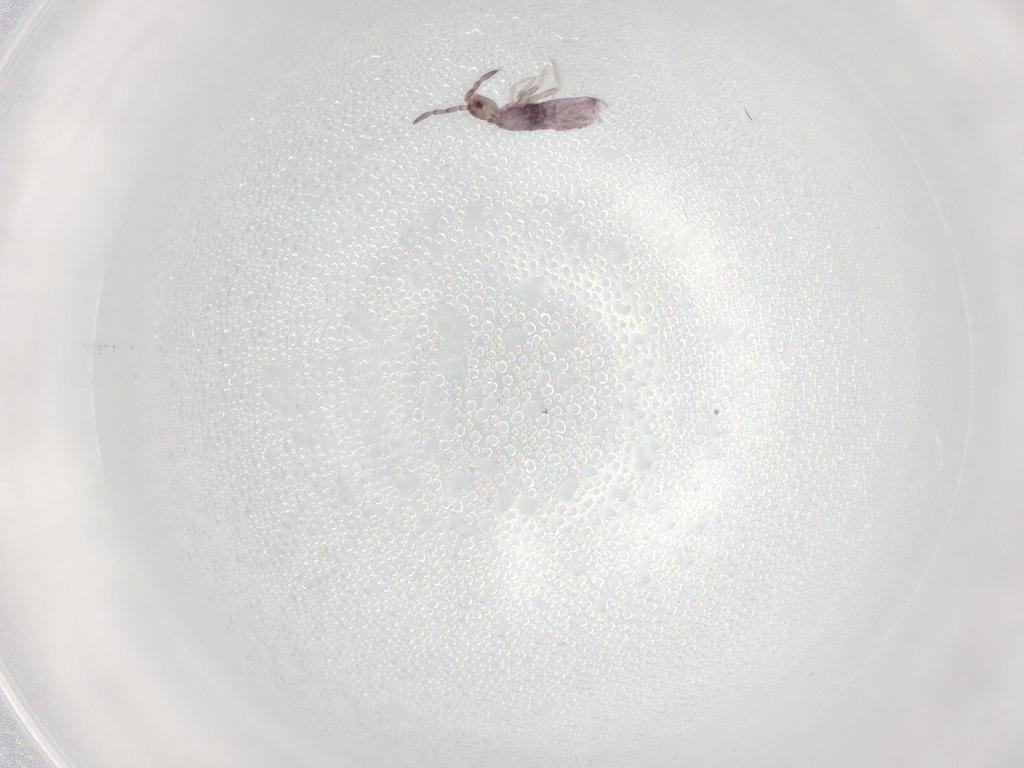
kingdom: Animalia
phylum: Arthropoda
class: Collembola
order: Entomobryomorpha
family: Entomobryidae
